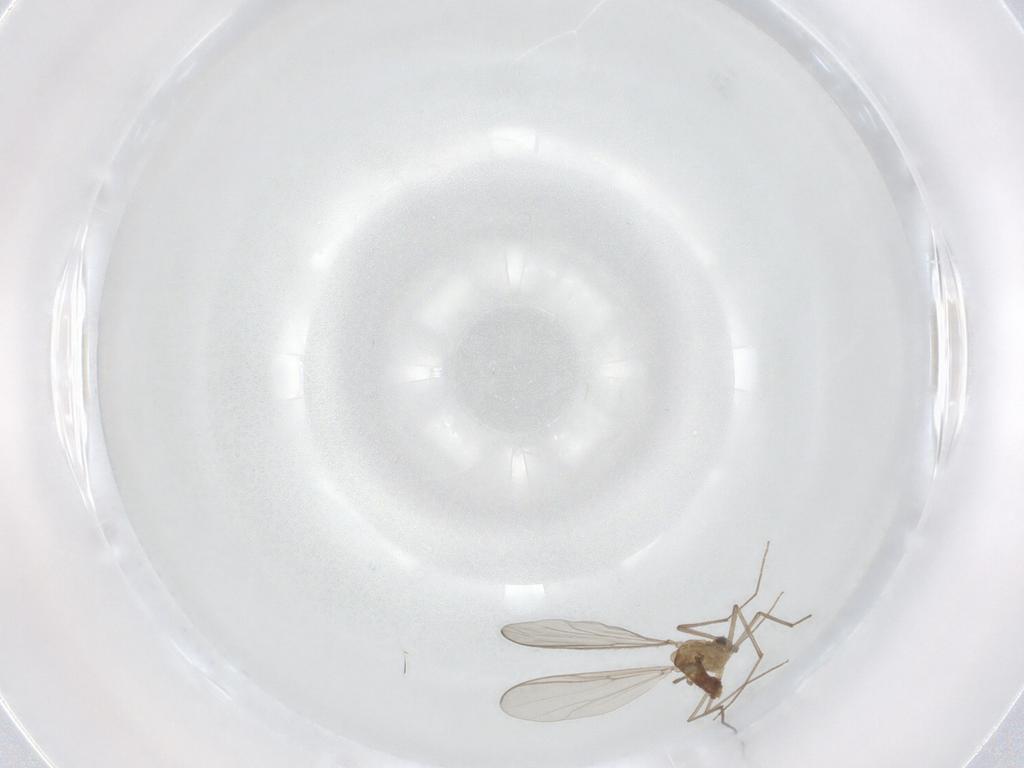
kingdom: Animalia
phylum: Arthropoda
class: Insecta
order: Diptera
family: Chironomidae
